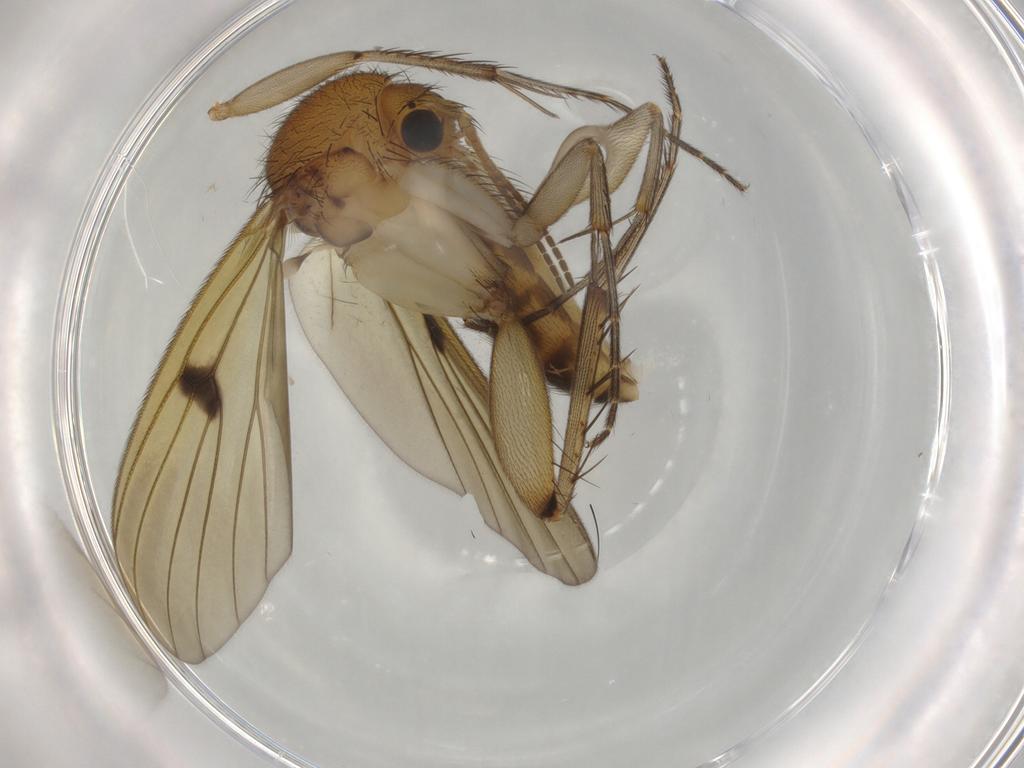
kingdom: Animalia
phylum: Arthropoda
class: Insecta
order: Diptera
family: Mycetophilidae
